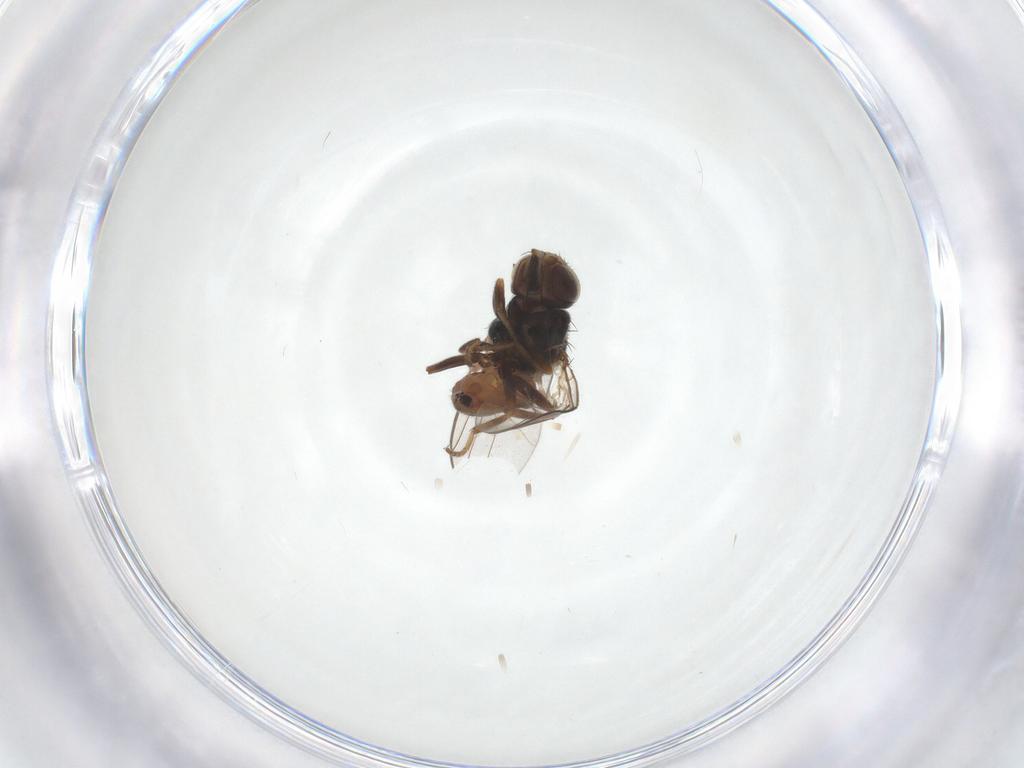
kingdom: Animalia
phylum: Arthropoda
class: Insecta
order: Diptera
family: Chloropidae
